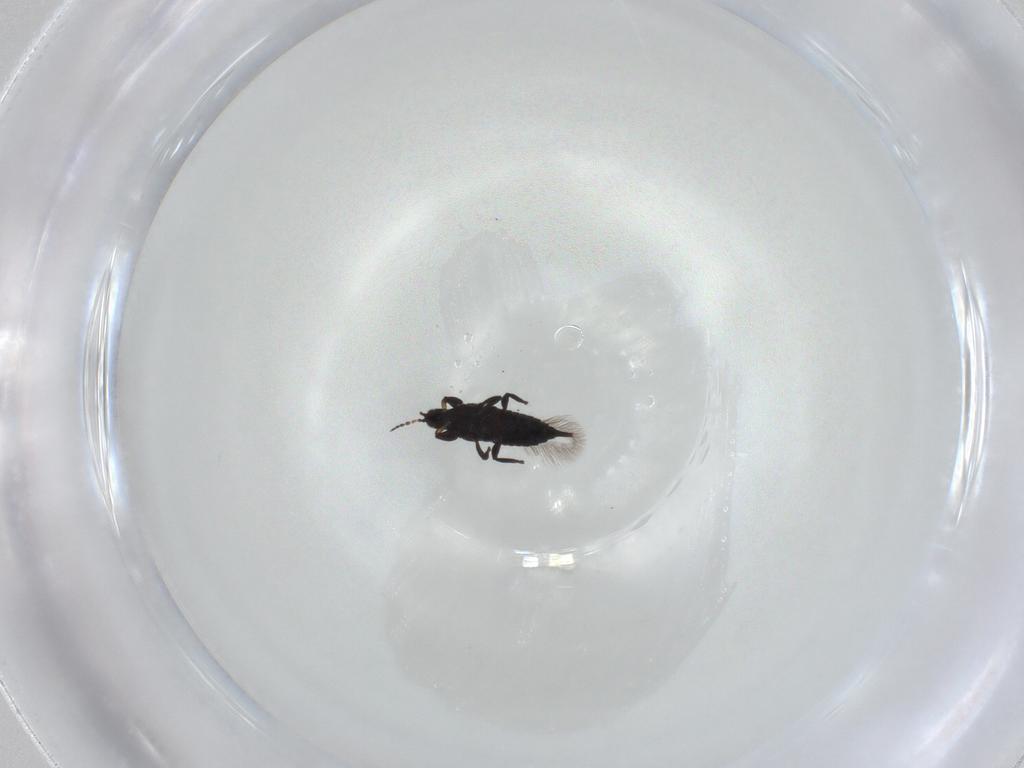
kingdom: Animalia
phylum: Arthropoda
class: Insecta
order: Thysanoptera
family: Phlaeothripidae
